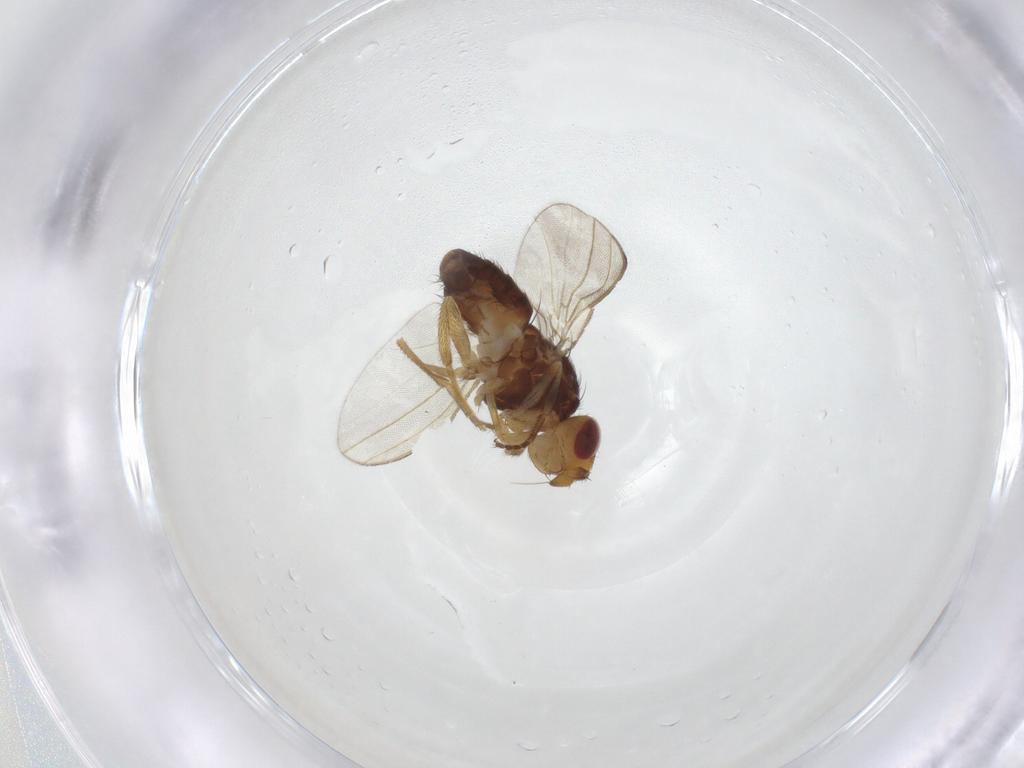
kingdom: Animalia
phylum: Arthropoda
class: Insecta
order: Diptera
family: Milichiidae
